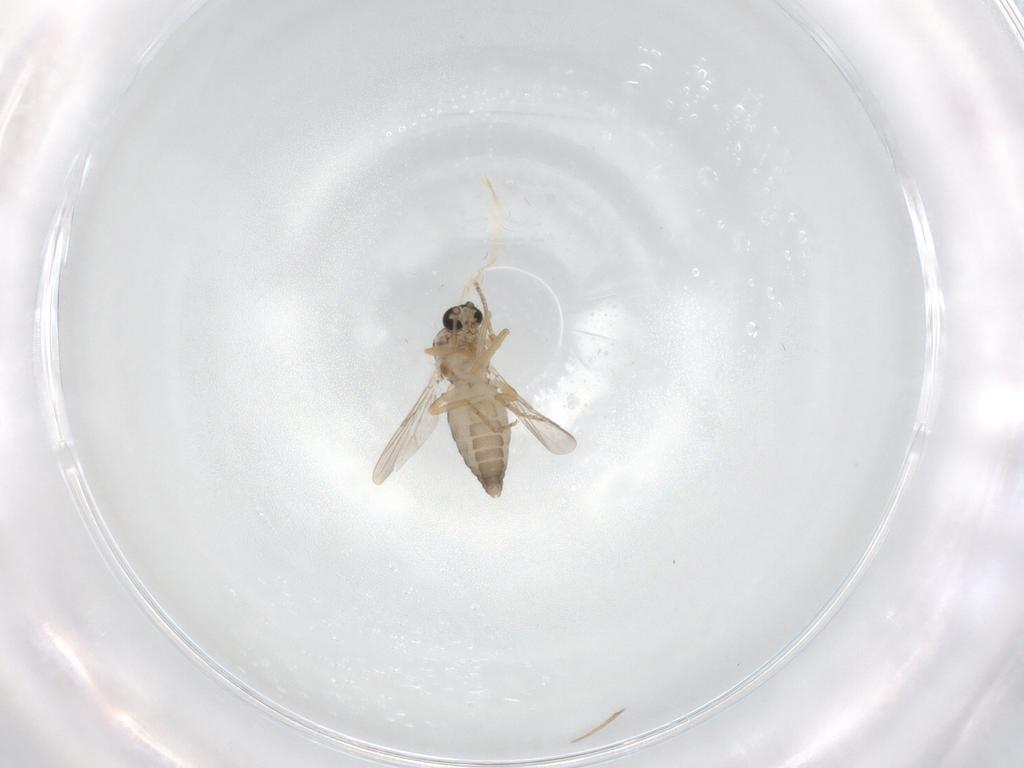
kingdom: Animalia
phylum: Arthropoda
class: Insecta
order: Diptera
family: Ceratopogonidae
